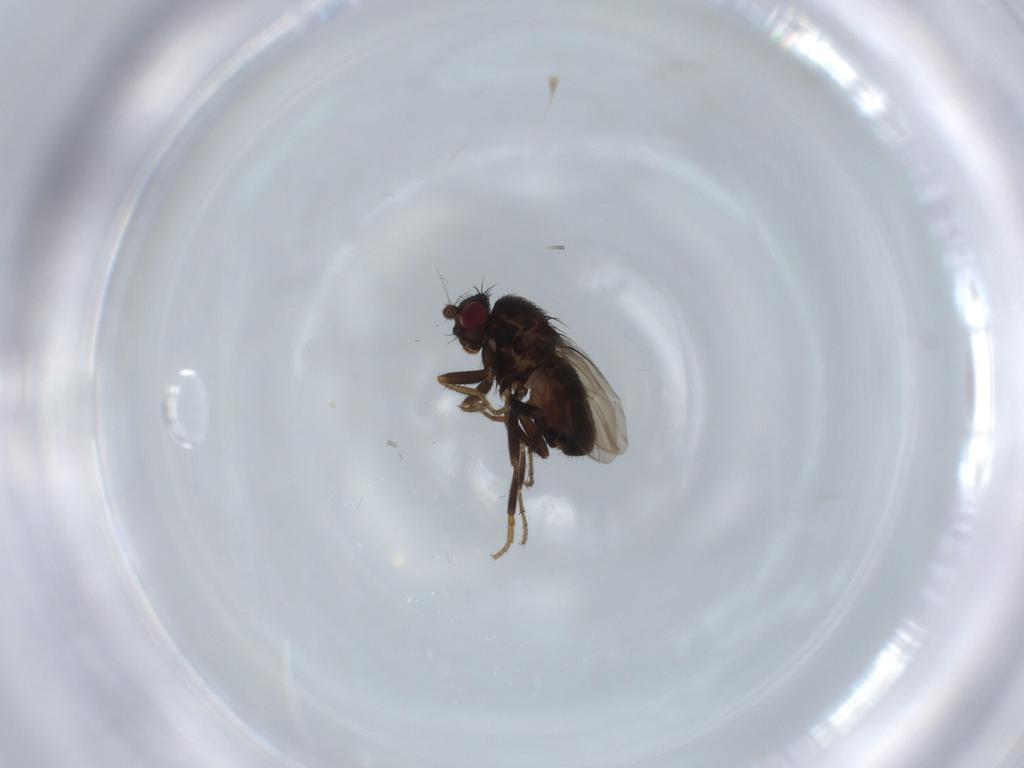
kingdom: Animalia
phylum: Arthropoda
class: Insecta
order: Diptera
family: Sphaeroceridae
